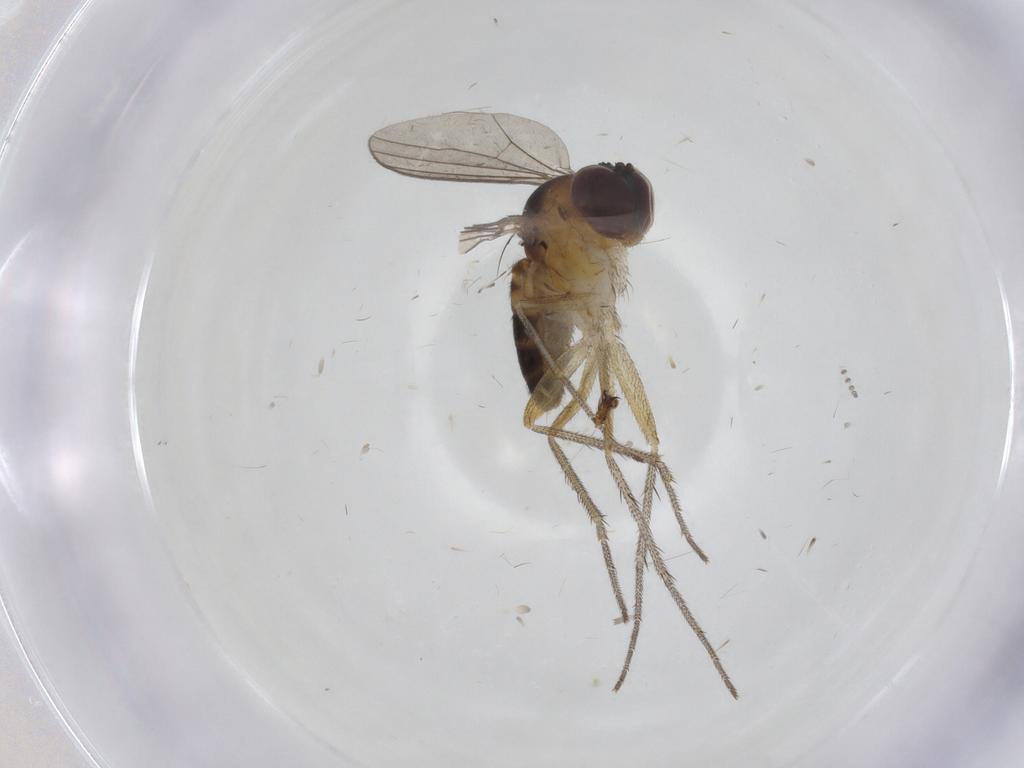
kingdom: Animalia
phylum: Arthropoda
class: Insecta
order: Diptera
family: Dolichopodidae
